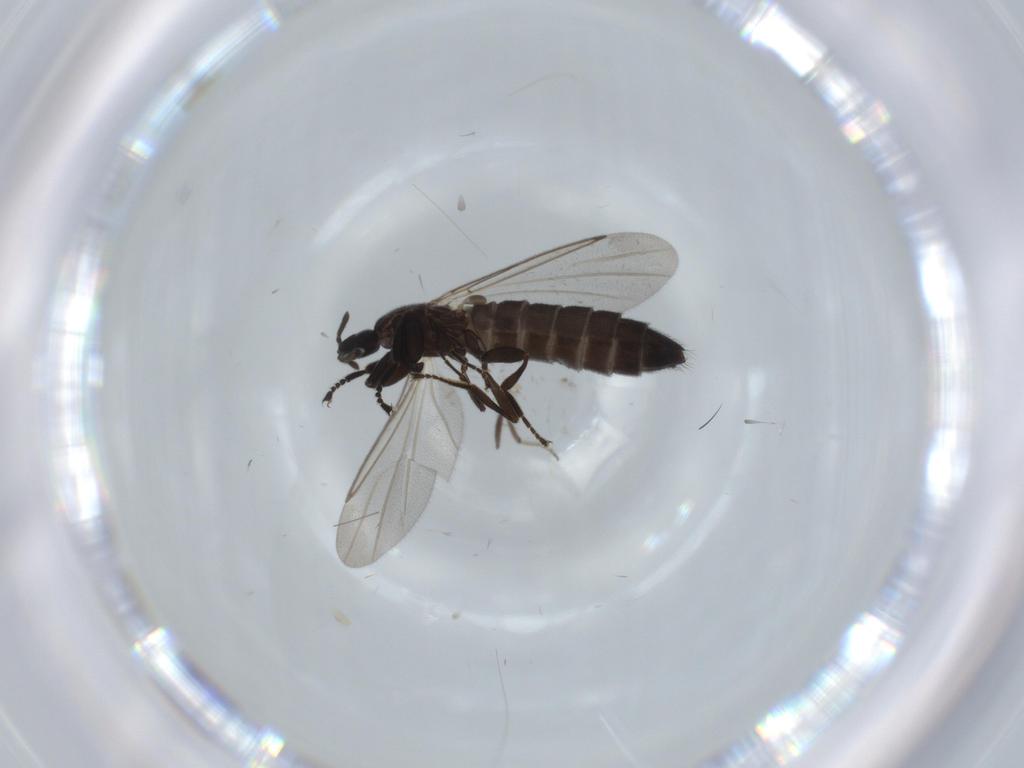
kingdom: Animalia
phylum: Arthropoda
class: Insecta
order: Diptera
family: Scatopsidae
